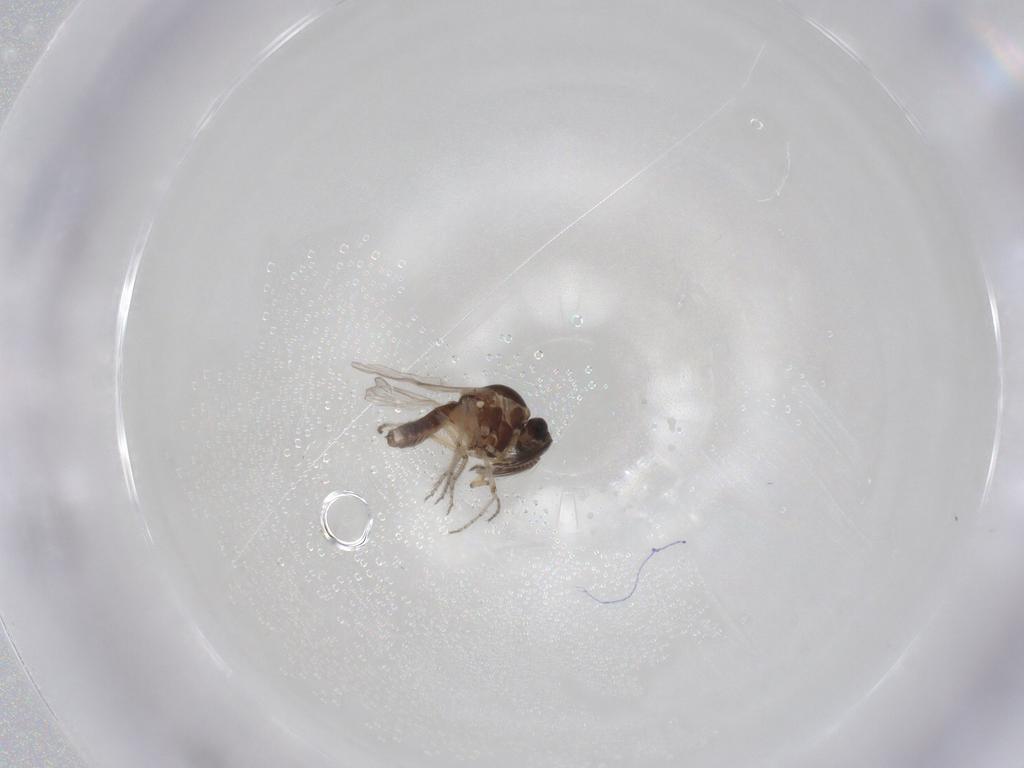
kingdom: Animalia
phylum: Arthropoda
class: Insecta
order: Diptera
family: Ceratopogonidae
